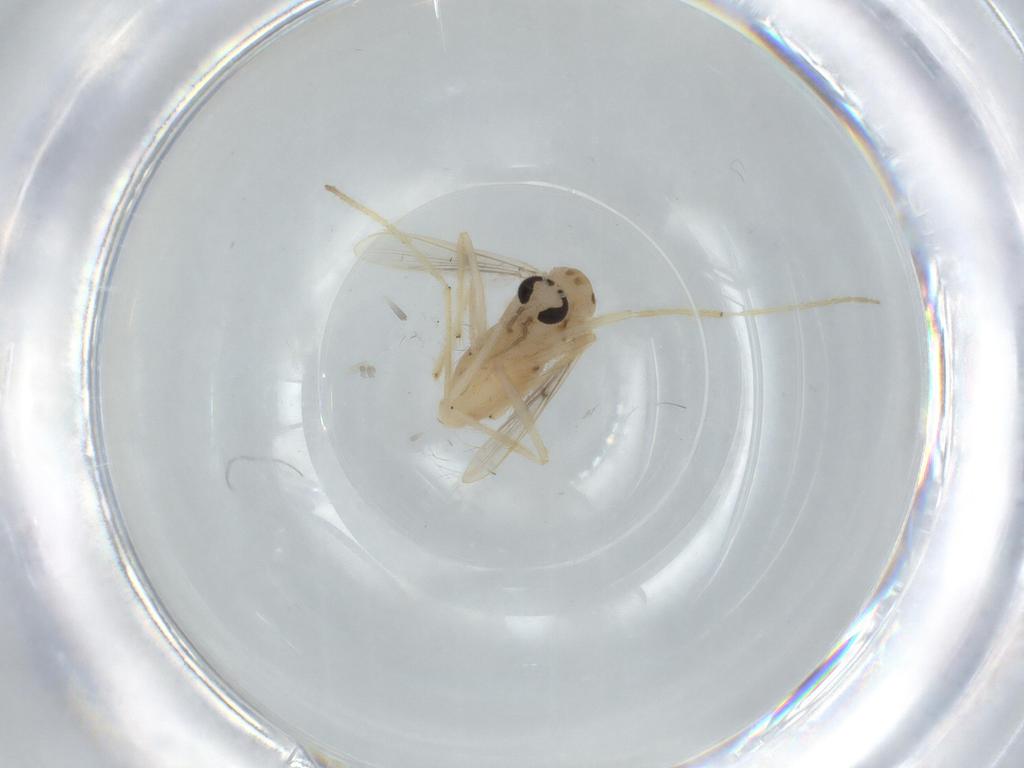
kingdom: Animalia
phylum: Arthropoda
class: Insecta
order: Diptera
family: Chironomidae
